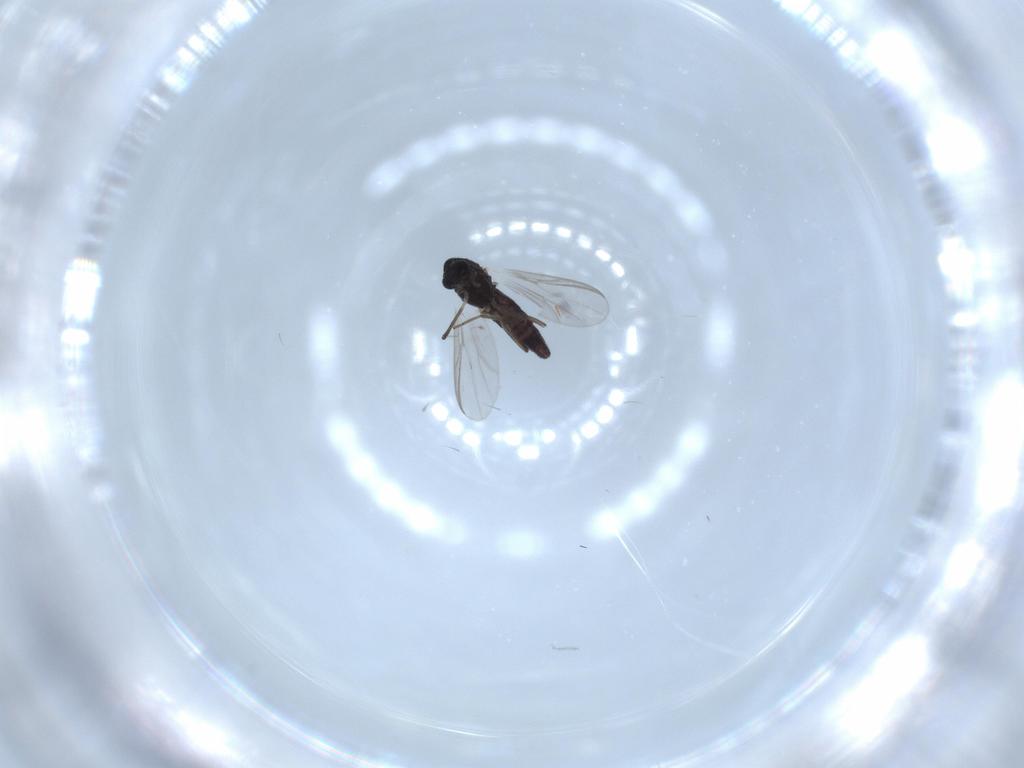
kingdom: Animalia
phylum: Arthropoda
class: Insecta
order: Diptera
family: Chironomidae
